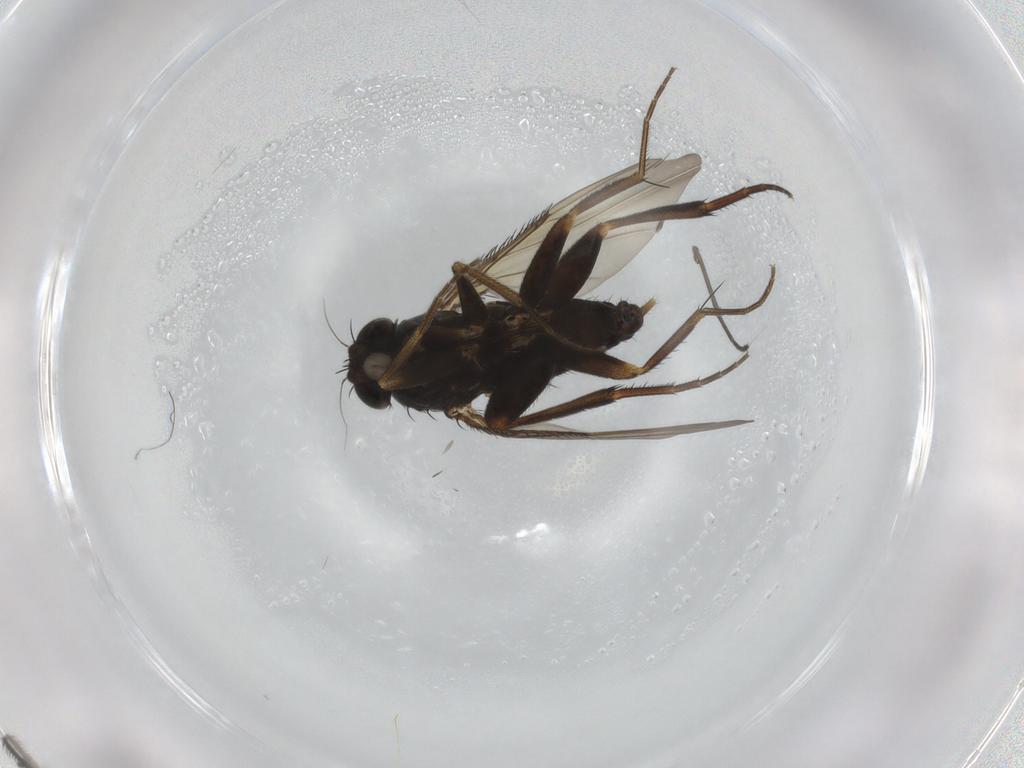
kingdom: Animalia
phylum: Arthropoda
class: Insecta
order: Diptera
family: Phoridae
